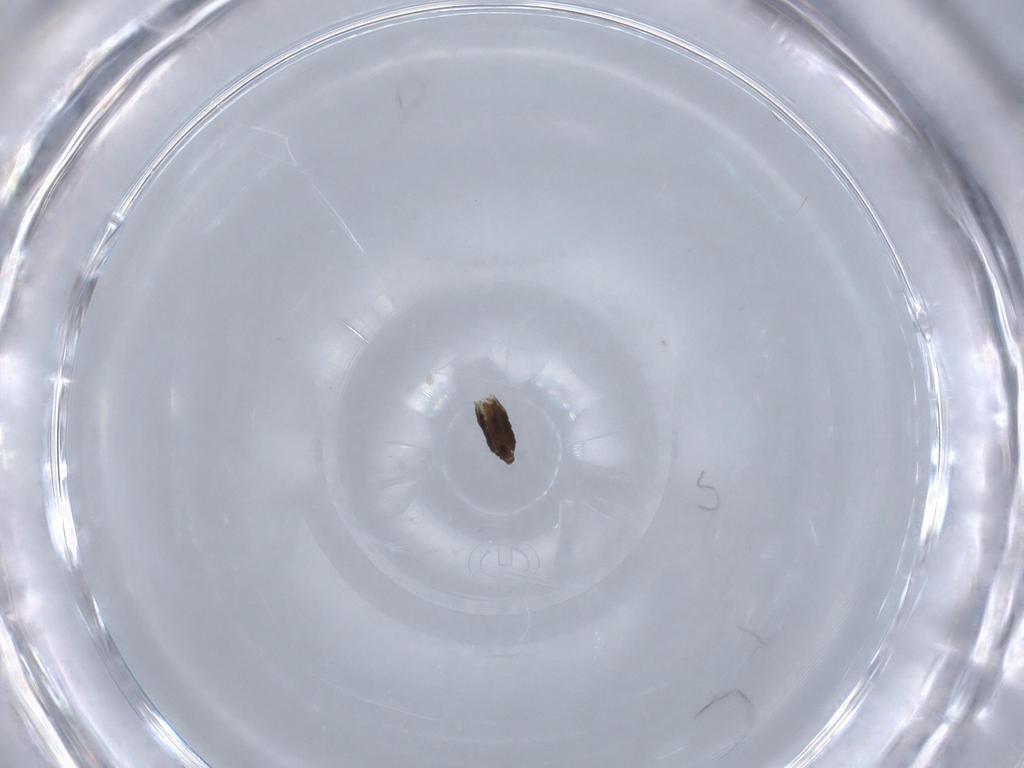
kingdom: Animalia
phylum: Arthropoda
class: Insecta
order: Diptera
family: Ceratopogonidae
